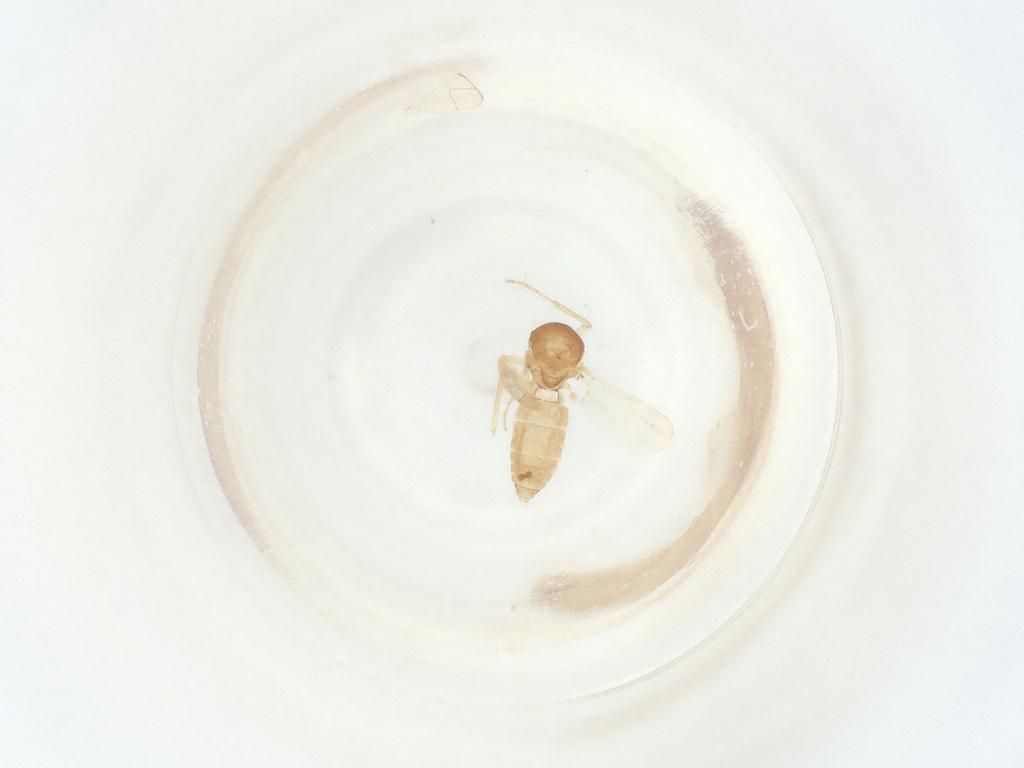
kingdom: Animalia
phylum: Arthropoda
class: Insecta
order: Diptera
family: Ceratopogonidae
